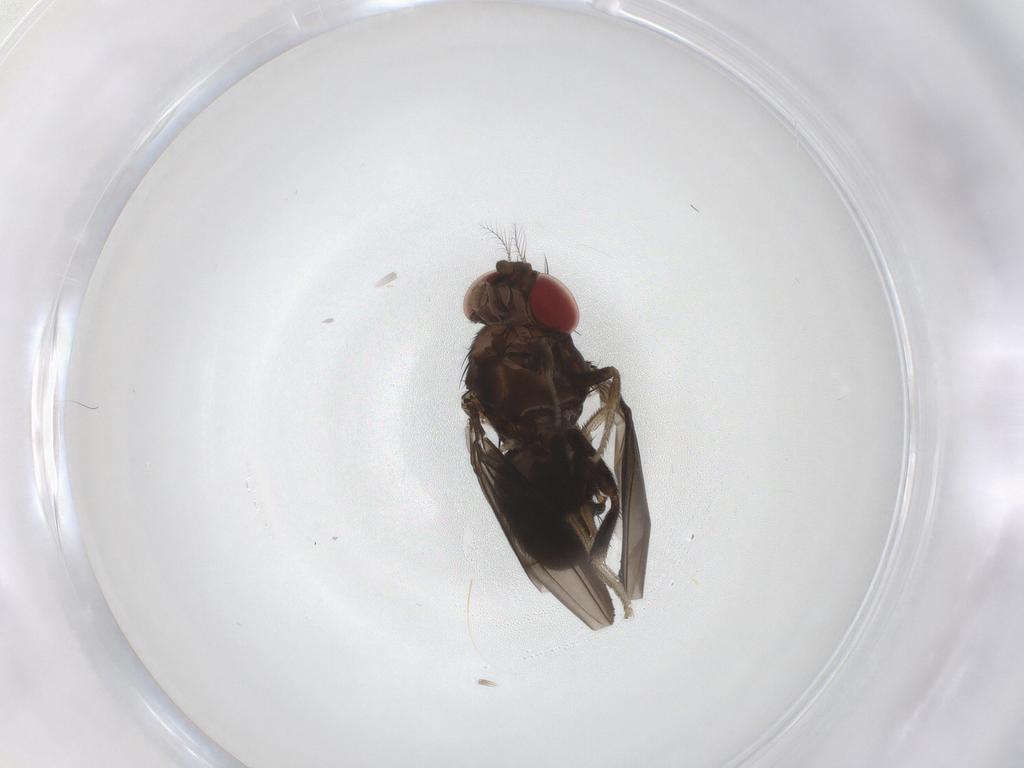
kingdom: Animalia
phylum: Arthropoda
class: Insecta
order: Diptera
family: Drosophilidae
